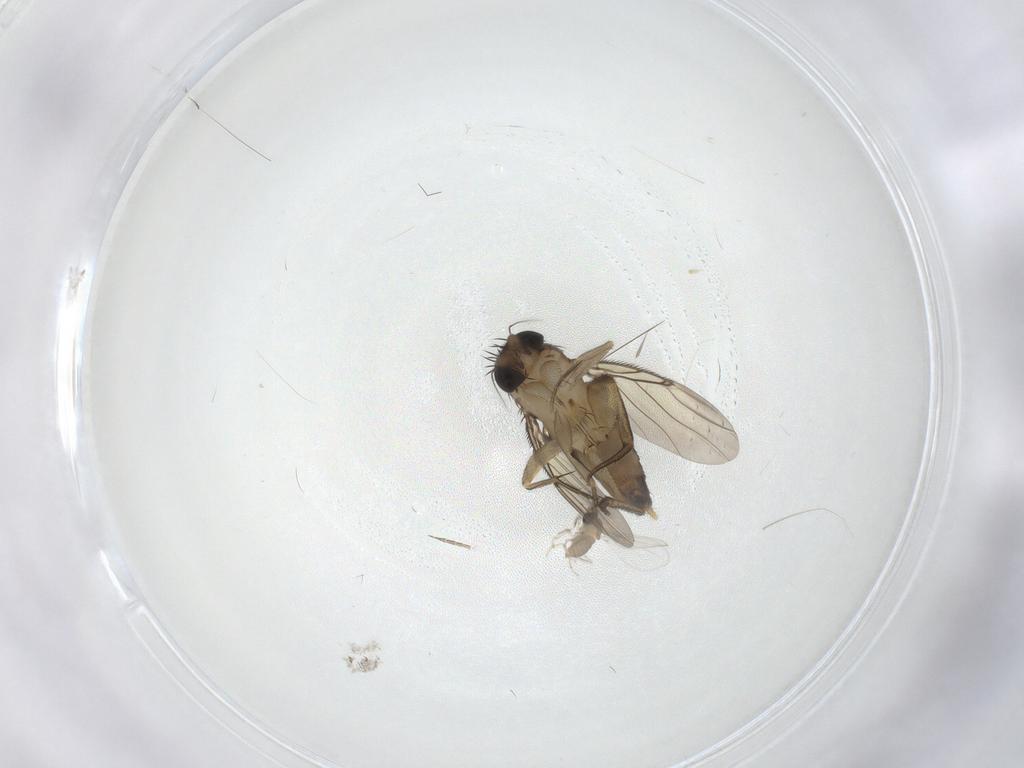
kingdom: Animalia
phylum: Arthropoda
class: Insecta
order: Diptera
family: Phoridae
